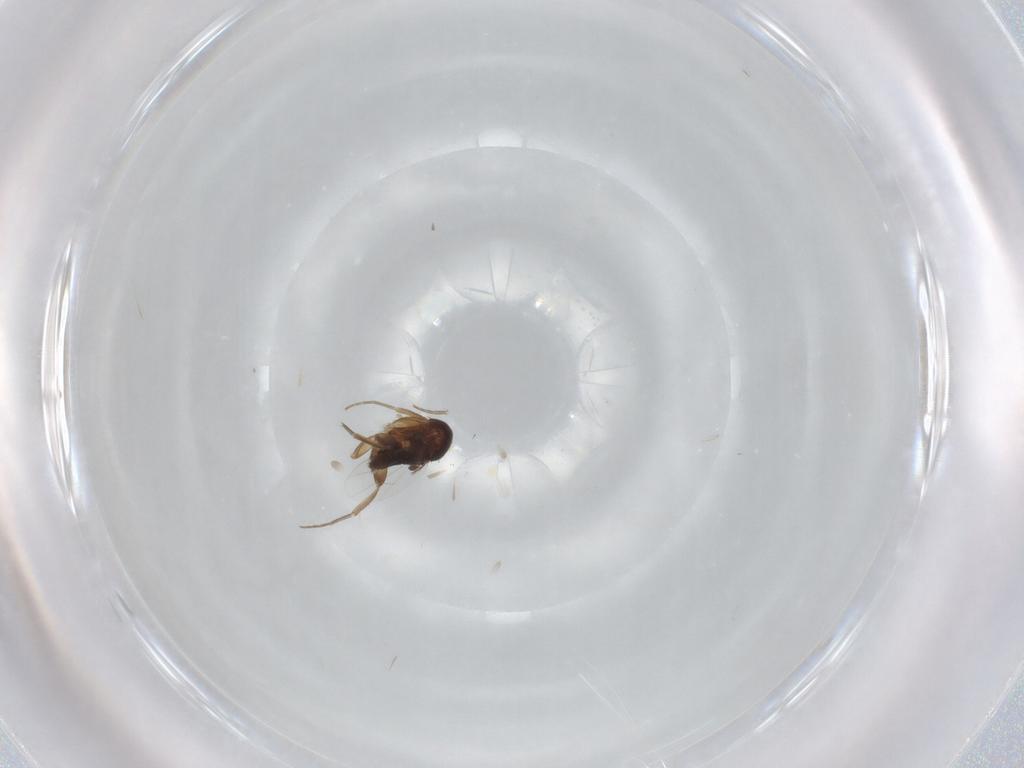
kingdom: Animalia
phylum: Arthropoda
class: Insecta
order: Diptera
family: Phoridae
